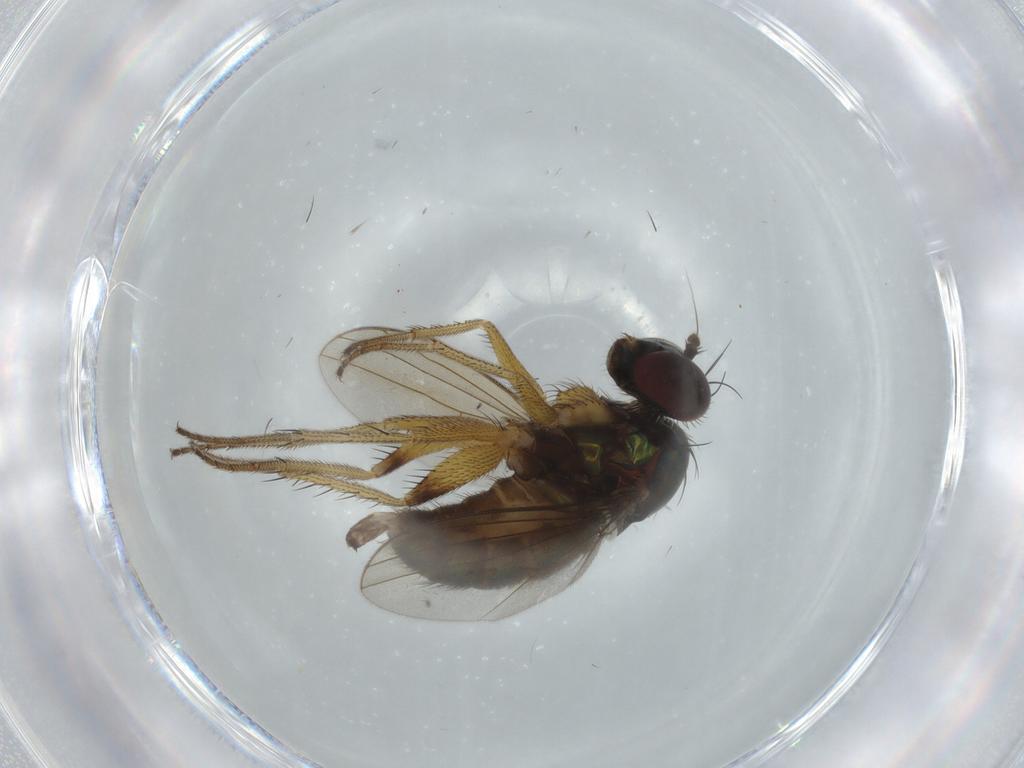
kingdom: Animalia
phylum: Arthropoda
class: Insecta
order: Diptera
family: Dolichopodidae
